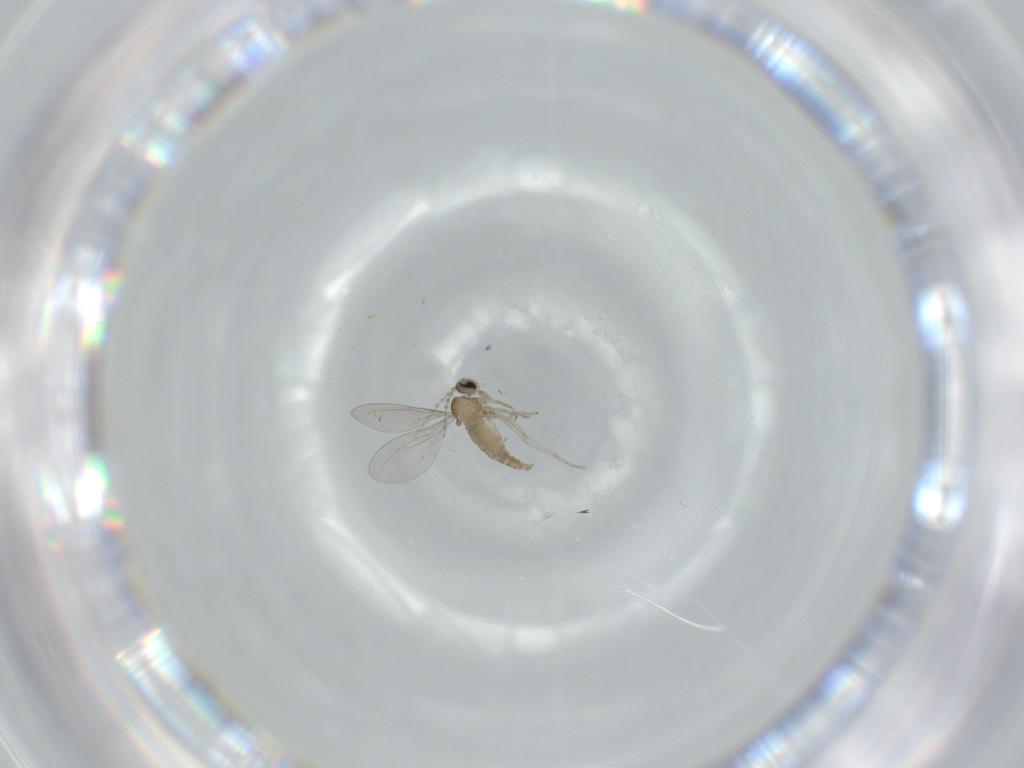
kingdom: Animalia
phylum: Arthropoda
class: Insecta
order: Diptera
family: Cecidomyiidae
